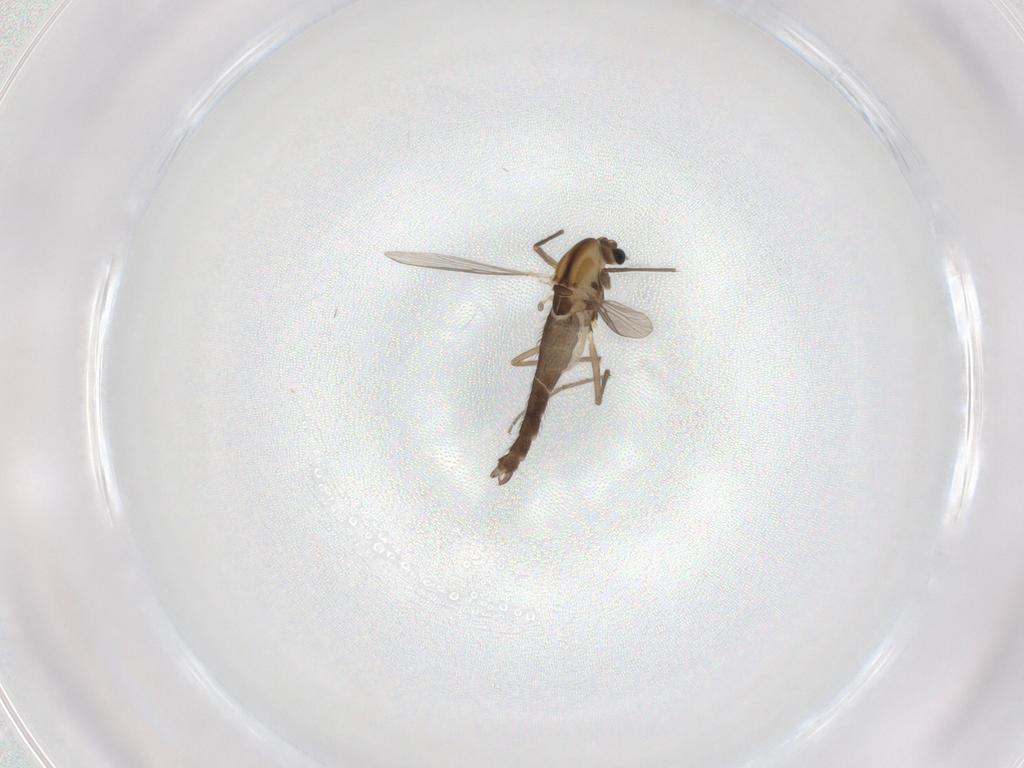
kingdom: Animalia
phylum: Arthropoda
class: Insecta
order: Diptera
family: Chironomidae
